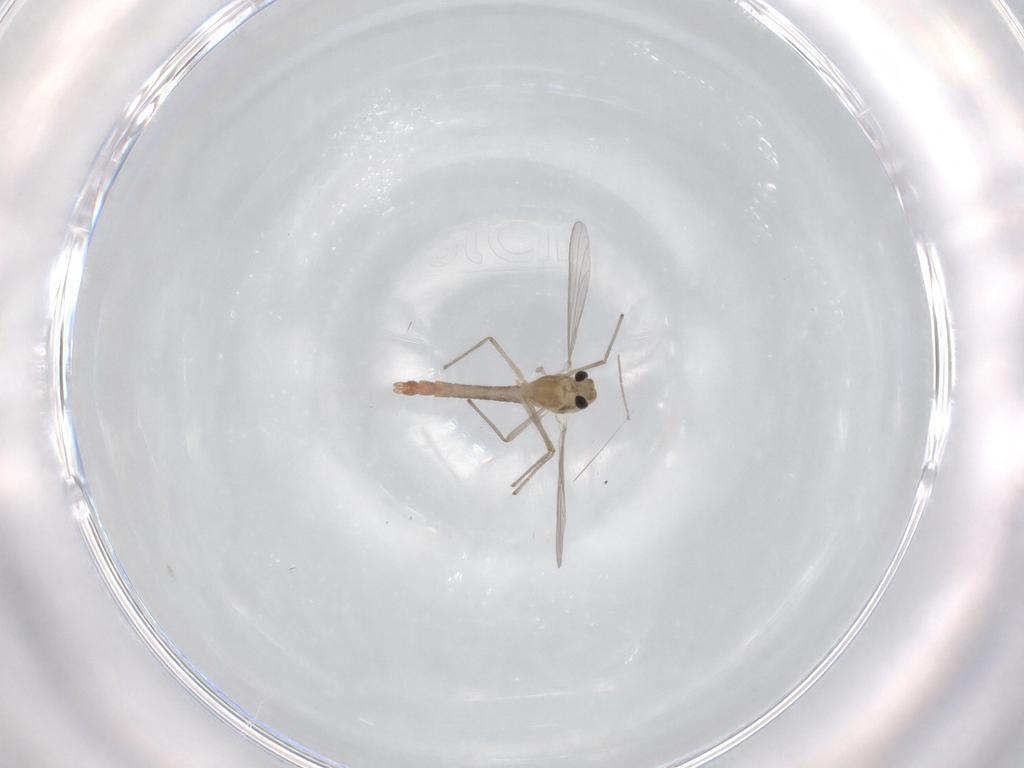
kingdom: Animalia
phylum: Arthropoda
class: Insecta
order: Diptera
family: Chironomidae
